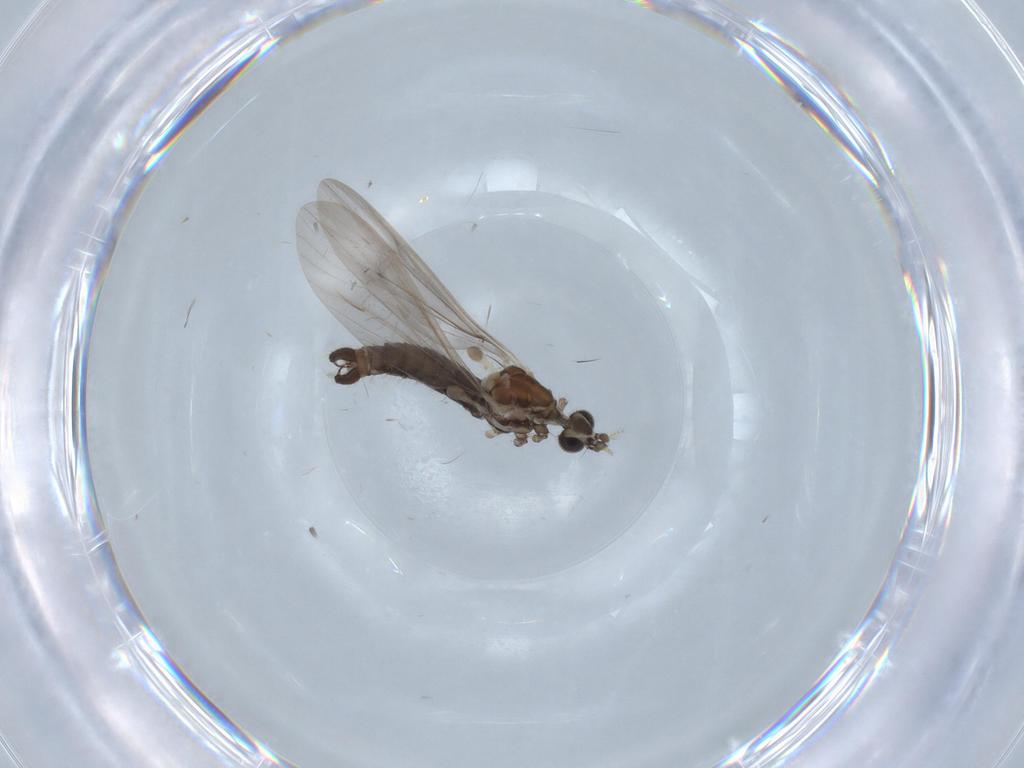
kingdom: Animalia
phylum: Arthropoda
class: Insecta
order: Diptera
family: Limoniidae
